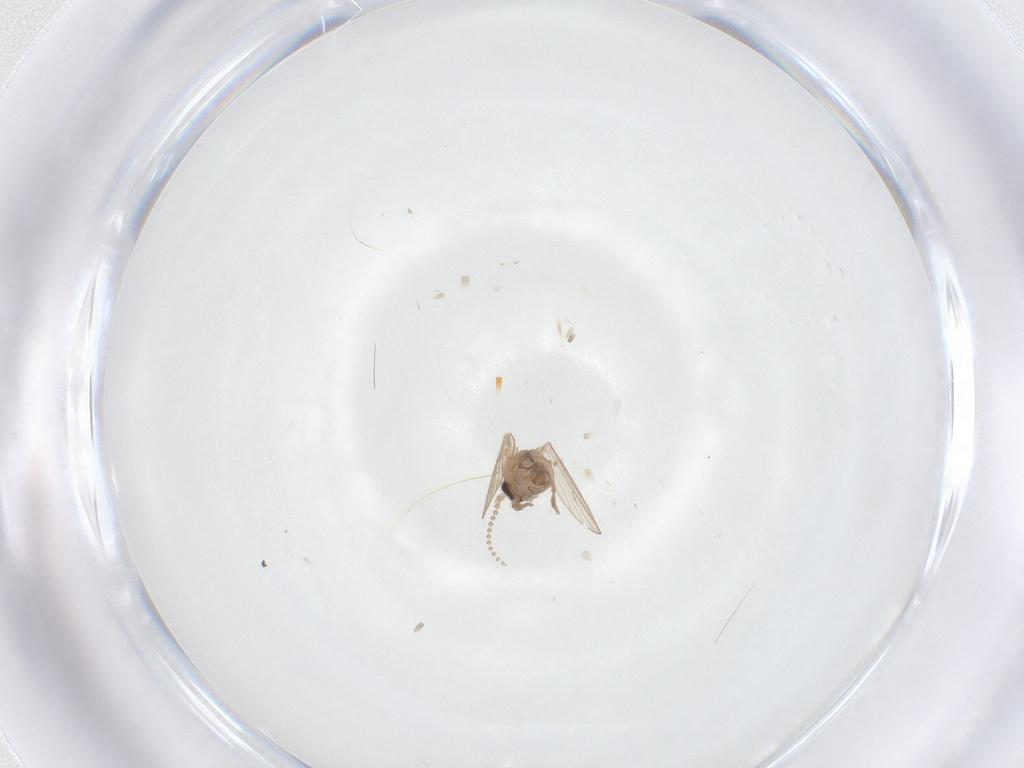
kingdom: Animalia
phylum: Arthropoda
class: Insecta
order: Diptera
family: Psychodidae
